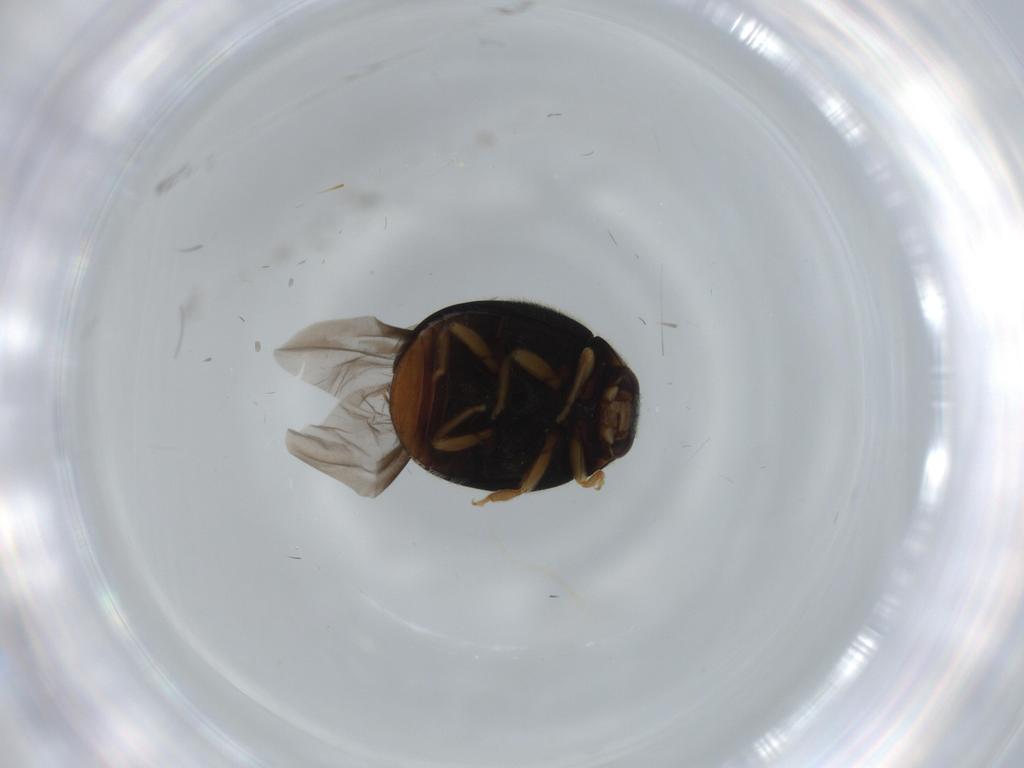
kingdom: Animalia
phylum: Arthropoda
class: Insecta
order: Coleoptera
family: Coccinellidae
